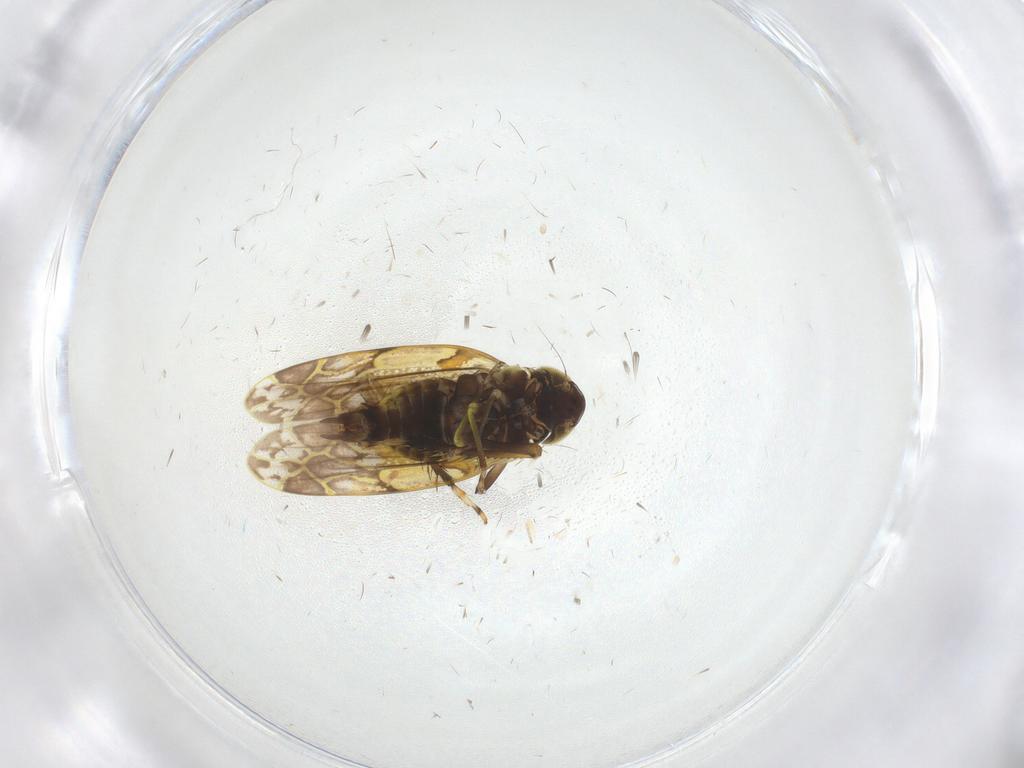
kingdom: Animalia
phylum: Arthropoda
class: Insecta
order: Hemiptera
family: Cicadellidae
